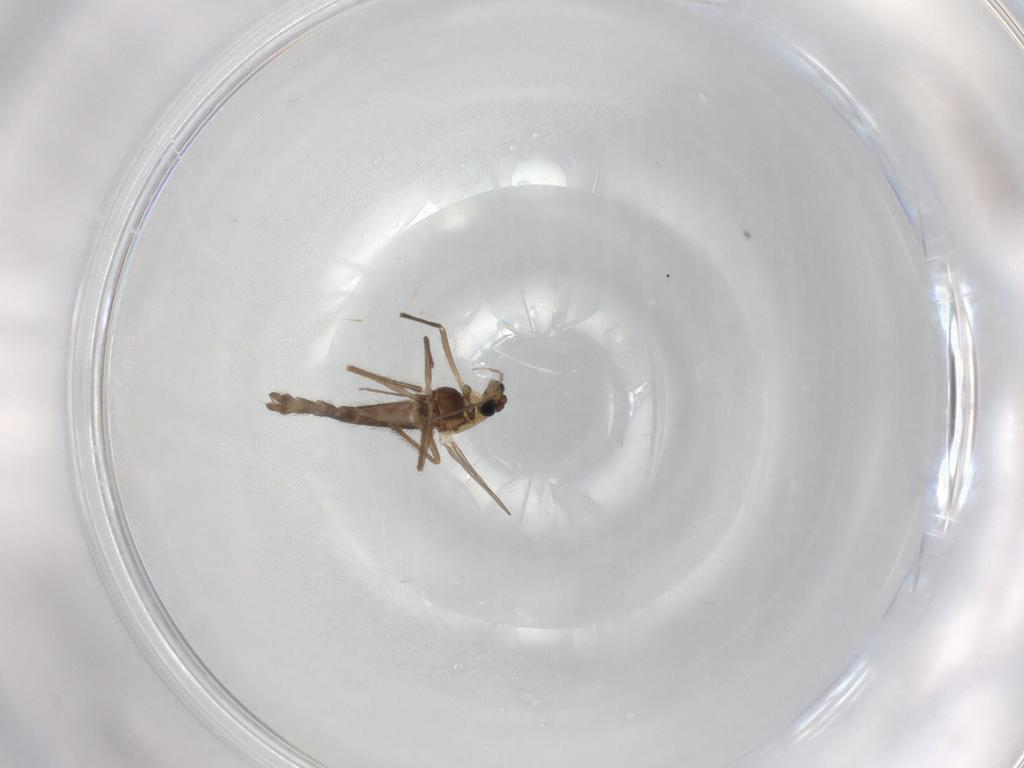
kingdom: Animalia
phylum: Arthropoda
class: Insecta
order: Diptera
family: Chironomidae
